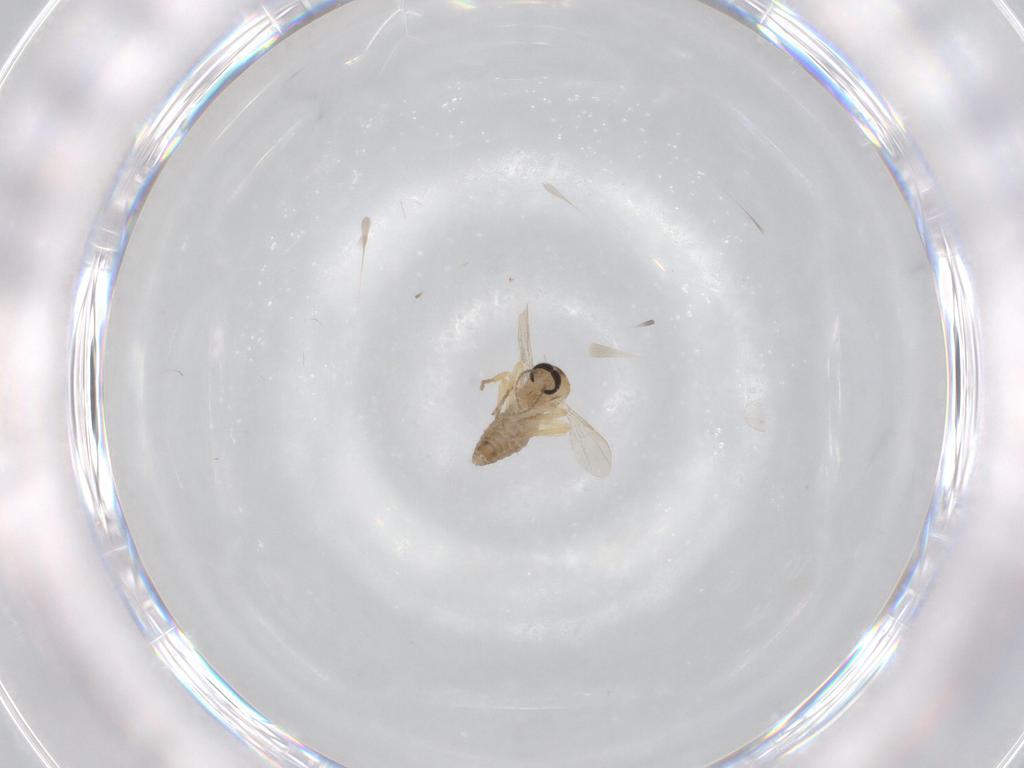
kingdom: Animalia
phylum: Arthropoda
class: Insecta
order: Diptera
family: Ceratopogonidae
